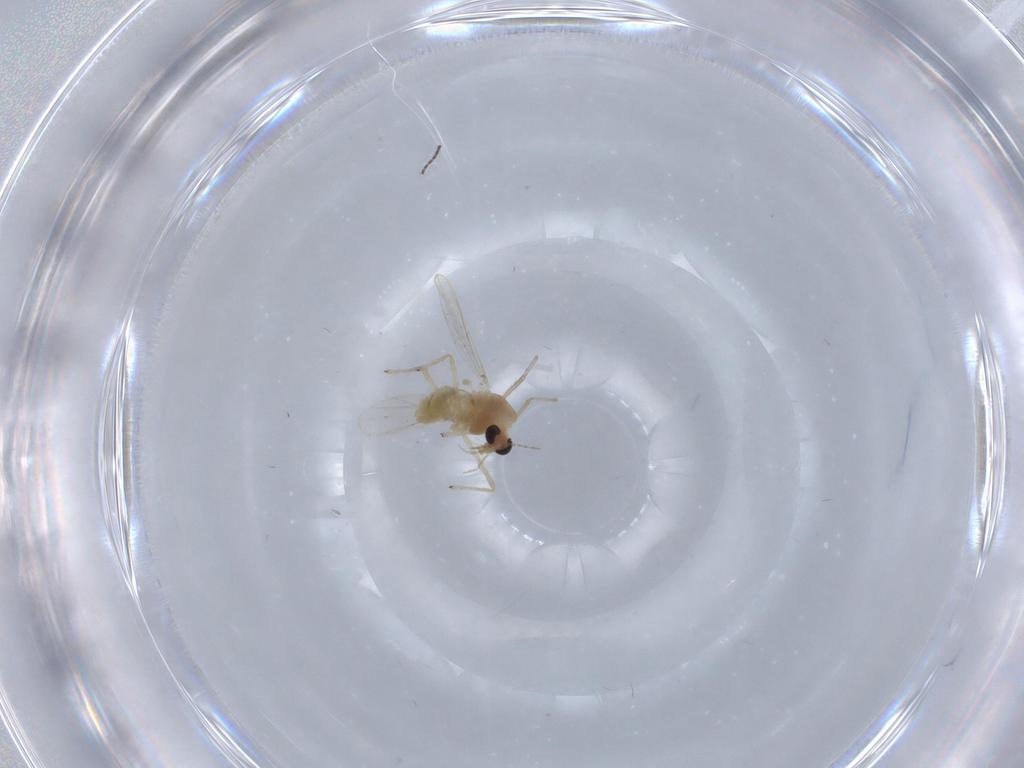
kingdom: Animalia
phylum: Arthropoda
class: Insecta
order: Diptera
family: Chironomidae
